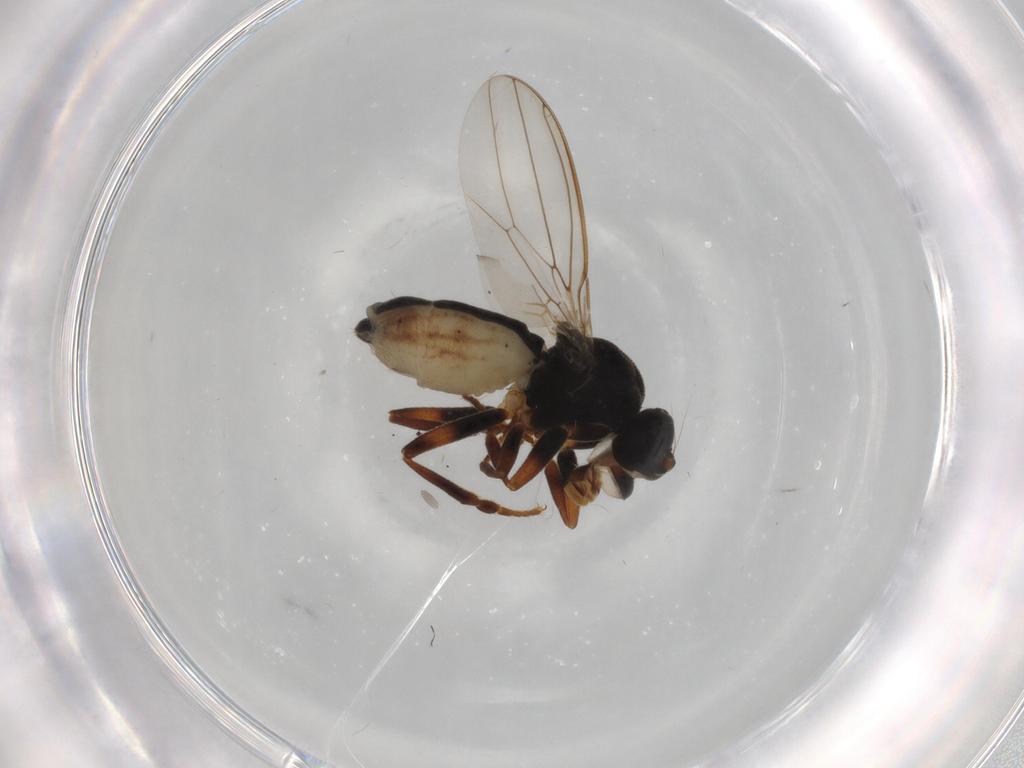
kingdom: Animalia
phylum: Arthropoda
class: Insecta
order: Diptera
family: Sphaeroceridae
